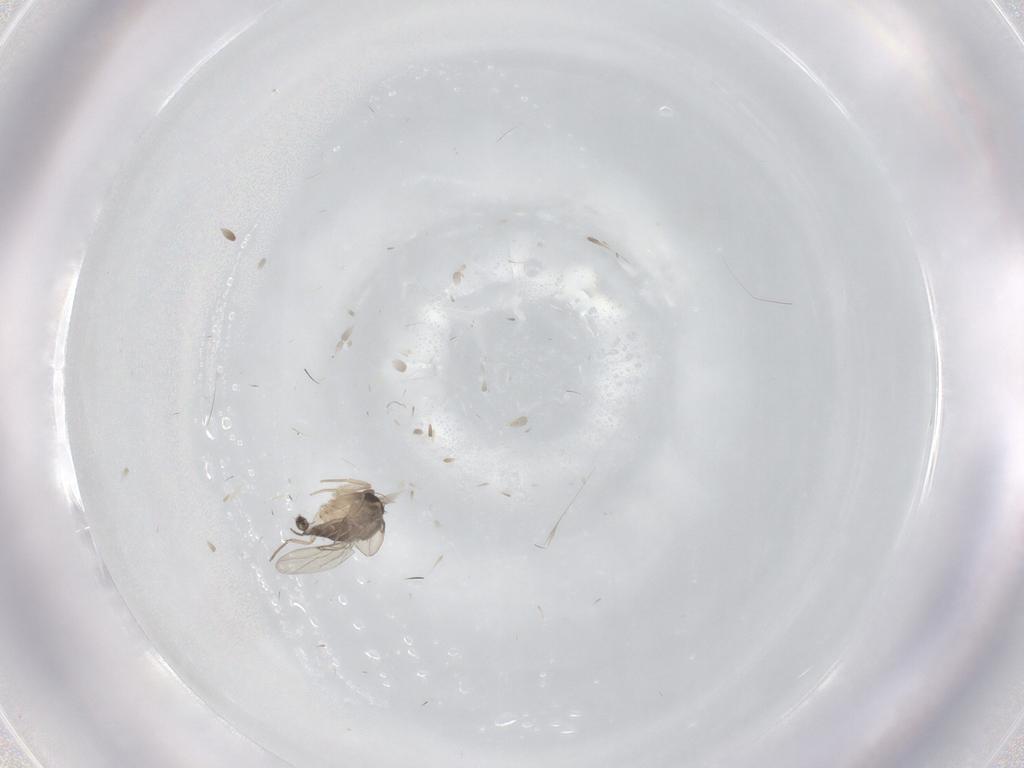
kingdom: Animalia
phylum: Arthropoda
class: Insecta
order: Diptera
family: Phoridae
